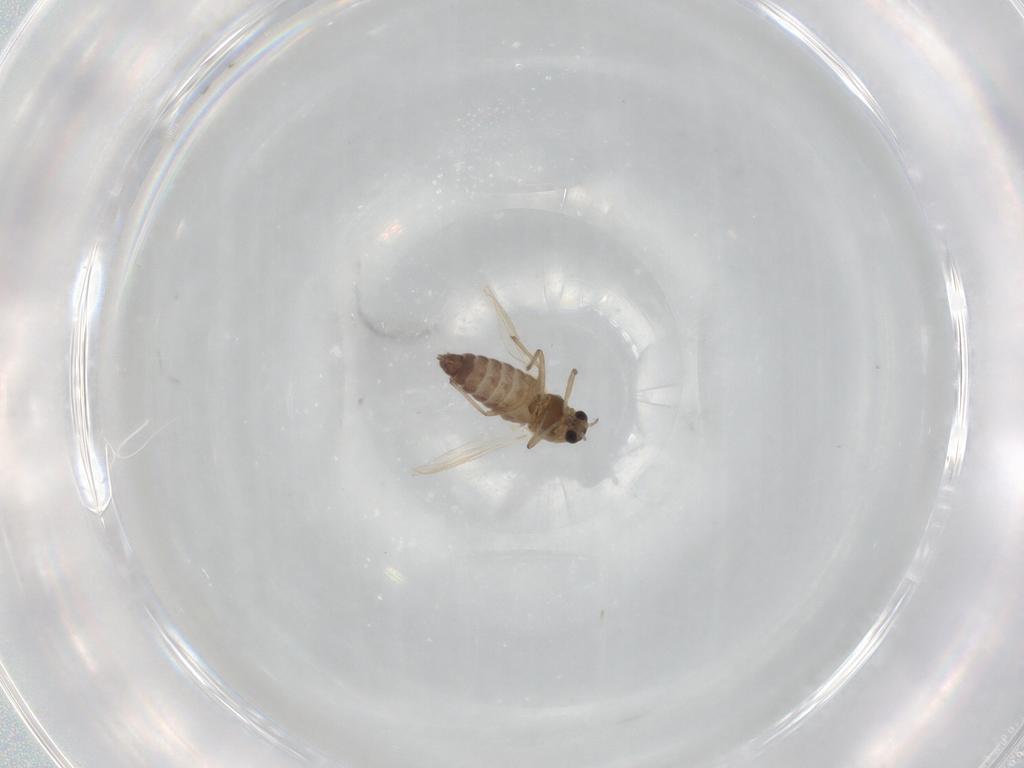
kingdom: Animalia
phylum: Arthropoda
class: Insecta
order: Diptera
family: Chironomidae
